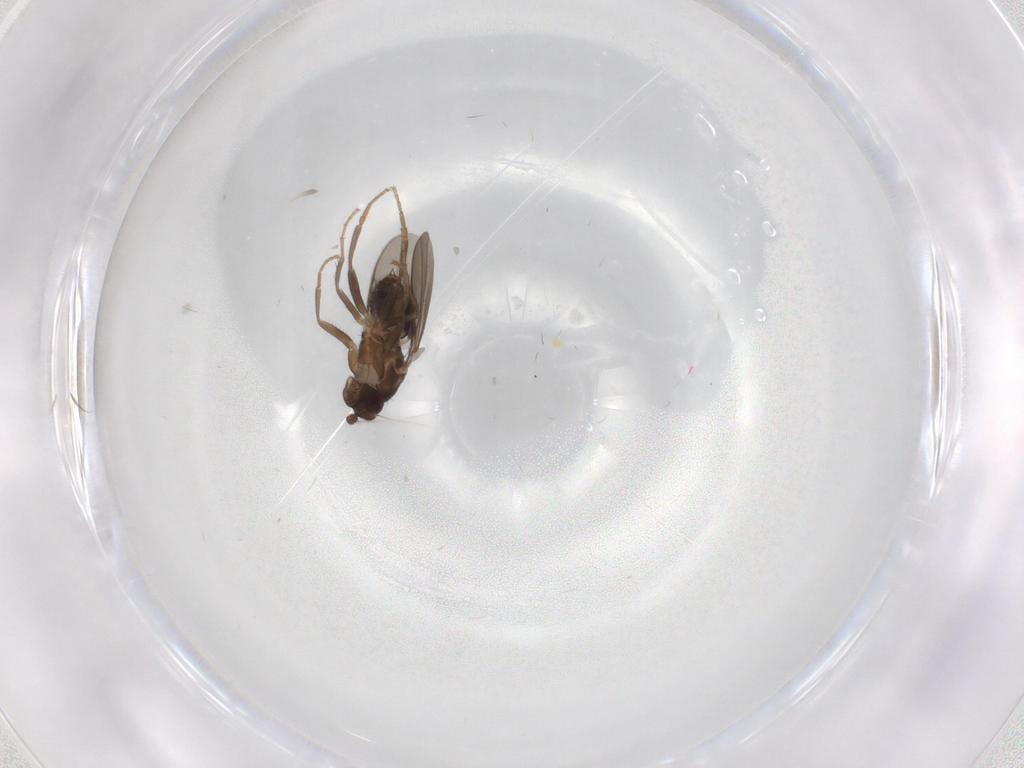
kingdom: Animalia
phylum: Arthropoda
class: Insecta
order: Diptera
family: Sphaeroceridae
